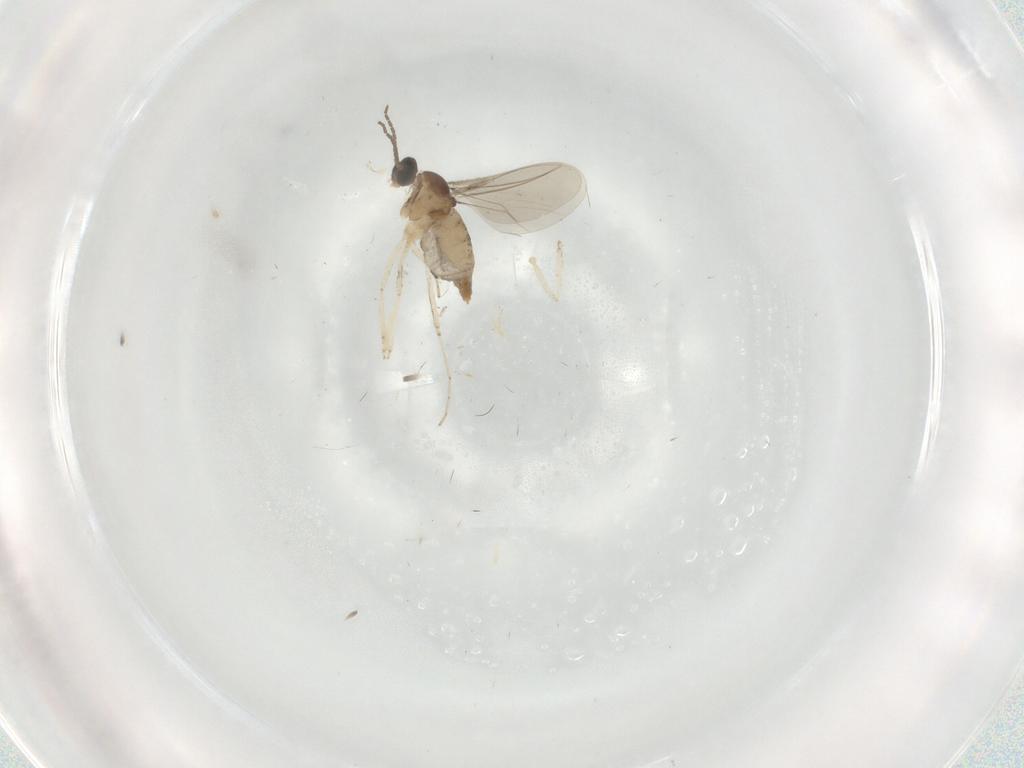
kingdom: Animalia
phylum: Arthropoda
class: Insecta
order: Diptera
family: Cecidomyiidae
